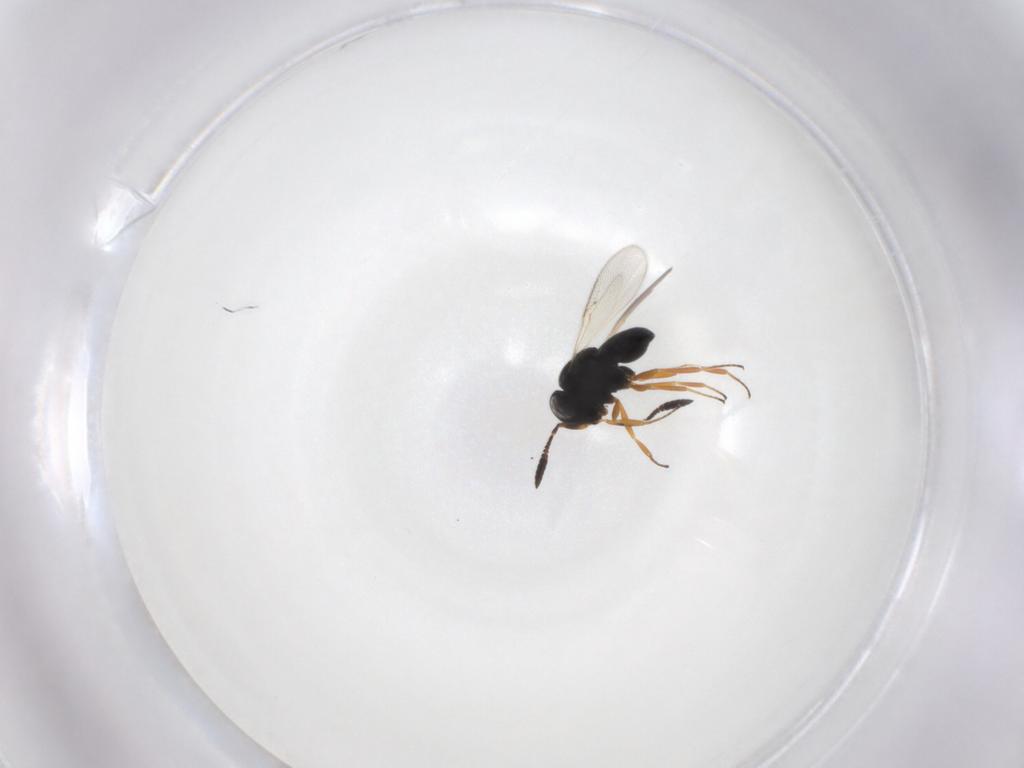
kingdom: Animalia
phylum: Arthropoda
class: Insecta
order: Hymenoptera
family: Scelionidae
